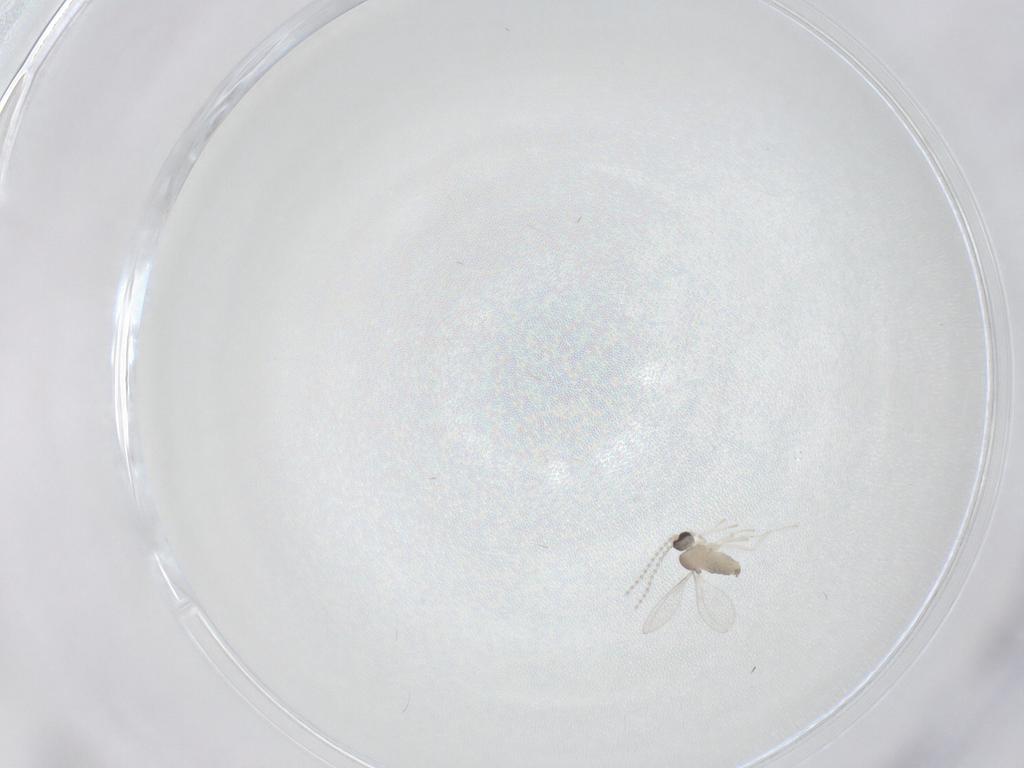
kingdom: Animalia
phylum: Arthropoda
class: Insecta
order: Diptera
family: Cecidomyiidae
